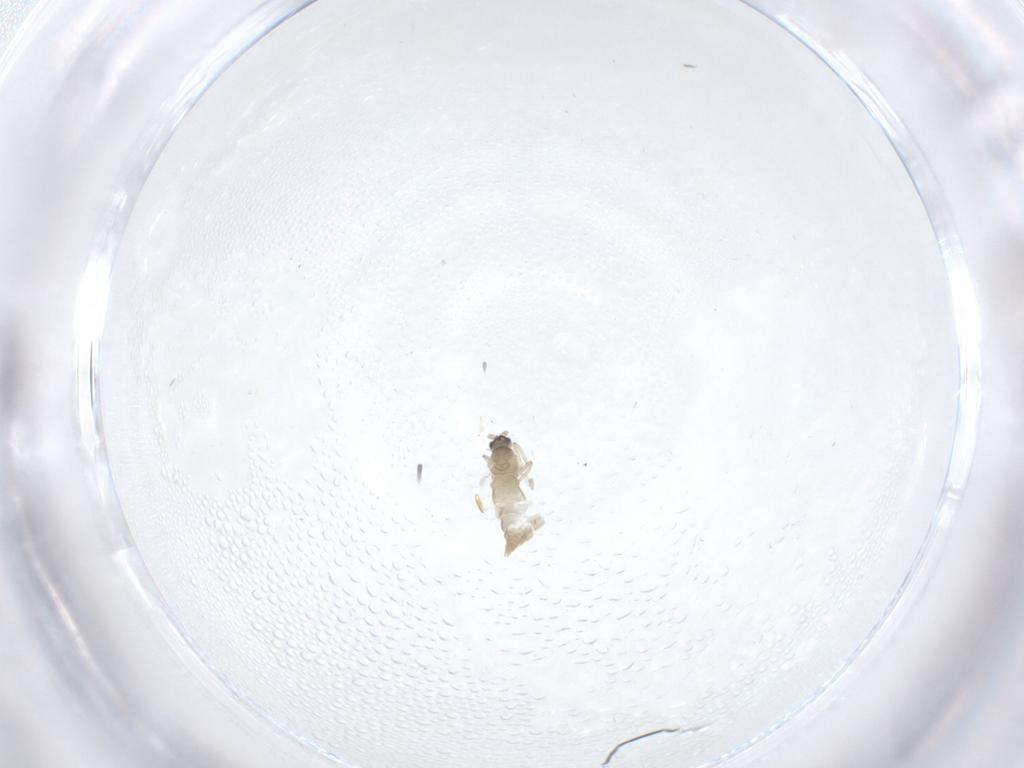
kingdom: Animalia
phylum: Arthropoda
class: Insecta
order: Diptera
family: Cecidomyiidae
